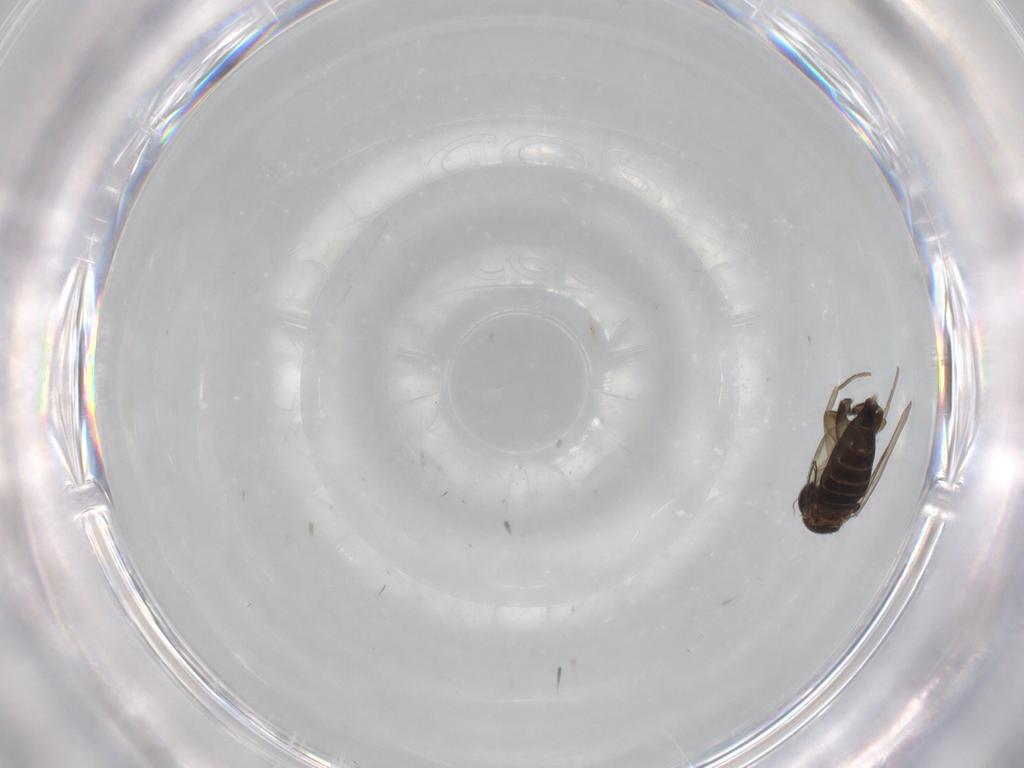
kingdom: Animalia
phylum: Arthropoda
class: Insecta
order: Diptera
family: Phoridae
